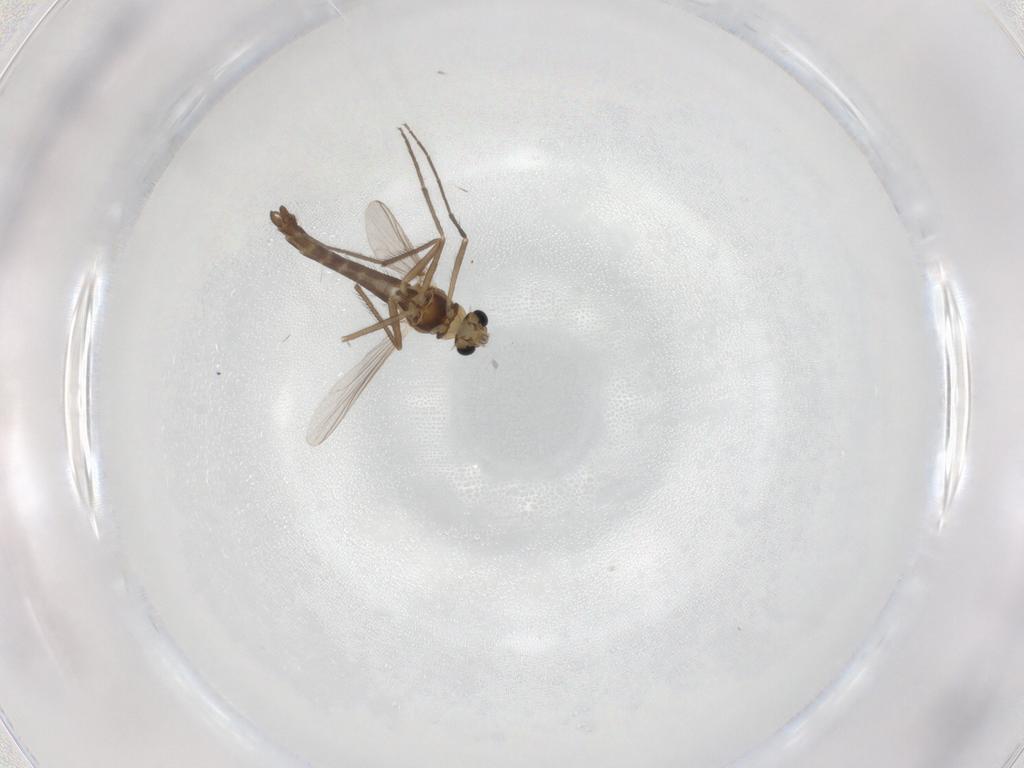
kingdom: Animalia
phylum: Arthropoda
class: Insecta
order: Diptera
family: Chironomidae
